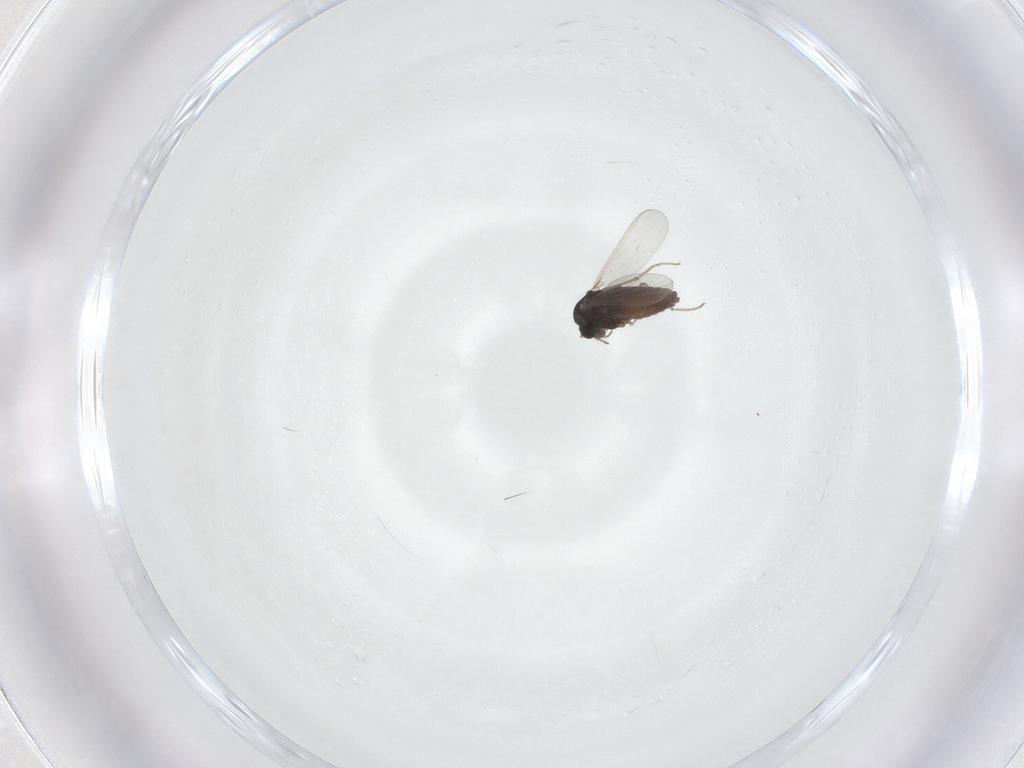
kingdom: Animalia
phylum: Arthropoda
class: Insecta
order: Diptera
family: Chironomidae
